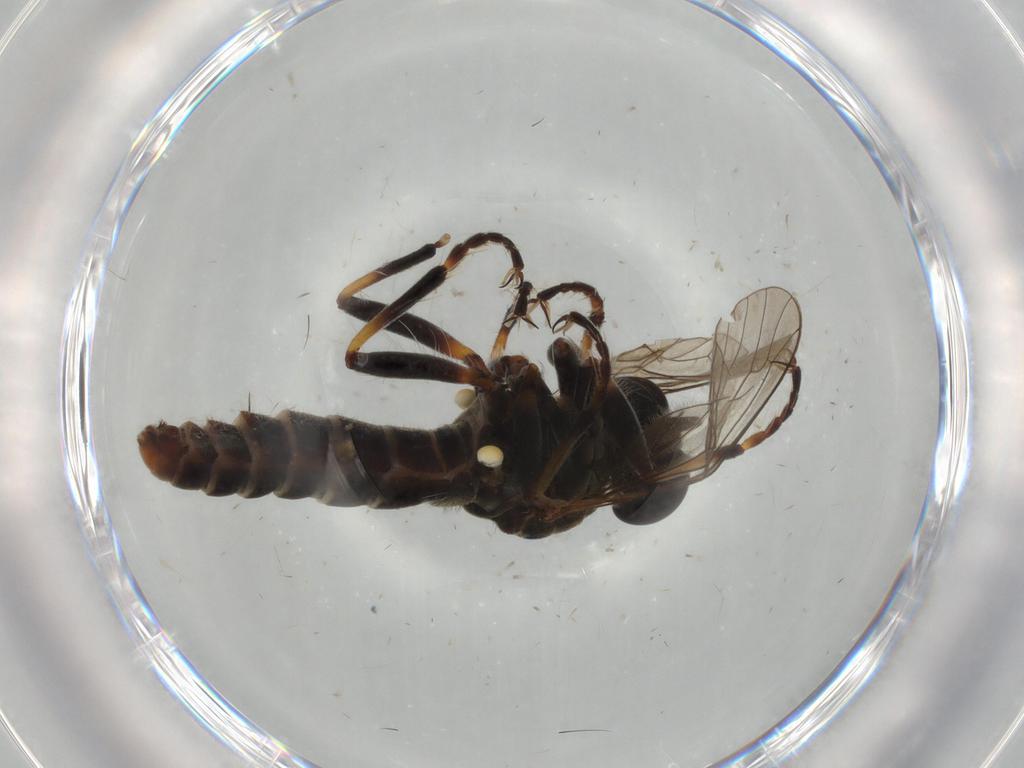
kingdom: Animalia
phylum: Arthropoda
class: Insecta
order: Diptera
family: Asilidae
